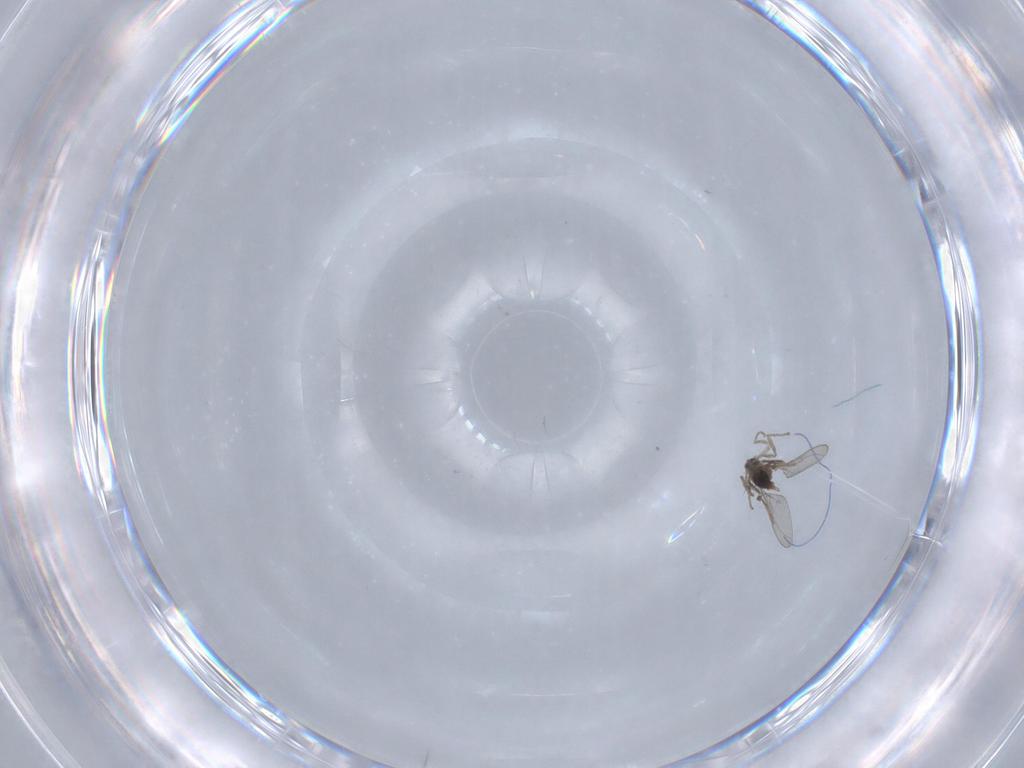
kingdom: Animalia
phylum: Arthropoda
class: Insecta
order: Diptera
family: Cecidomyiidae
